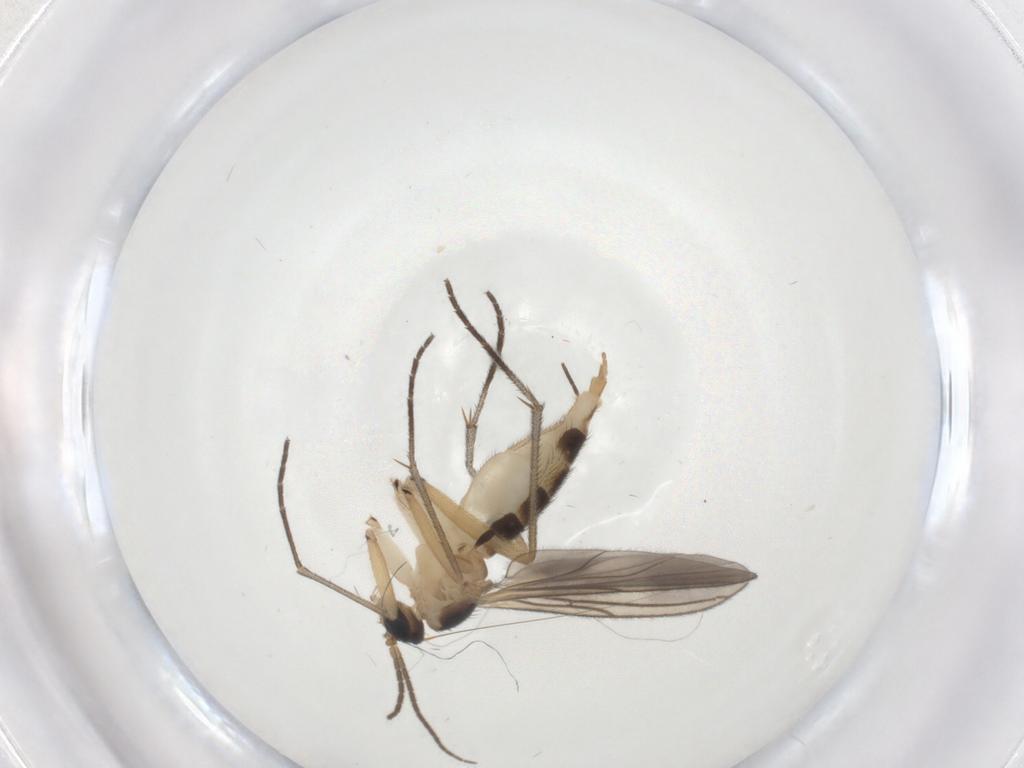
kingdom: Animalia
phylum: Arthropoda
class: Insecta
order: Diptera
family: Sciaridae
